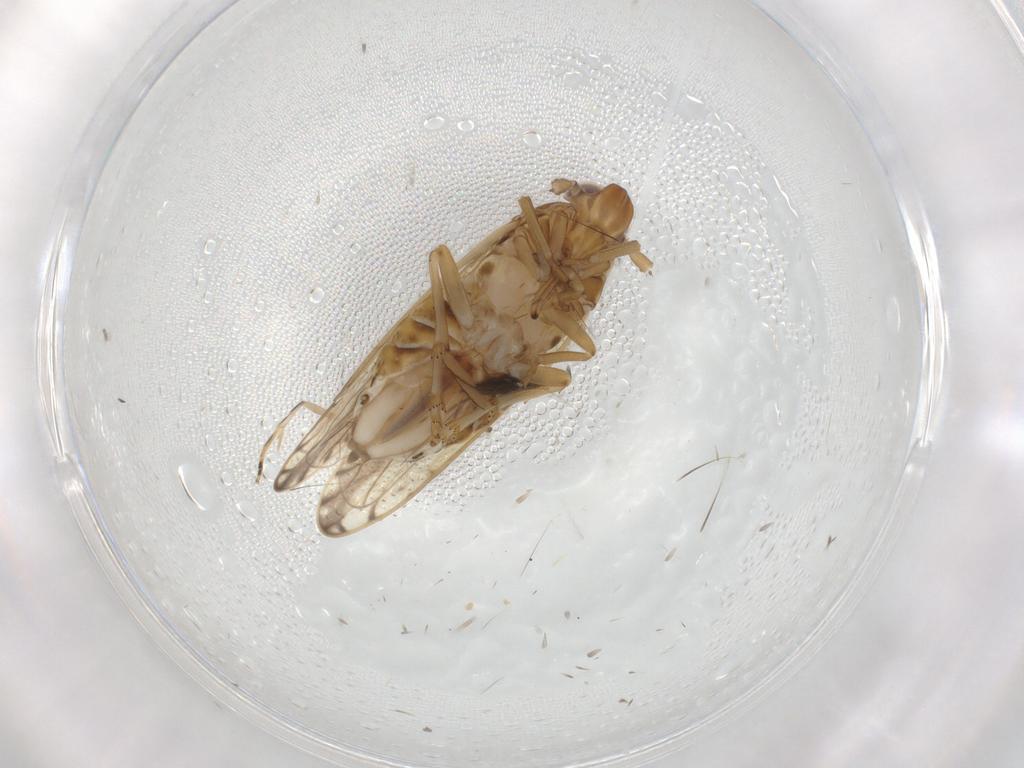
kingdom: Animalia
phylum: Arthropoda
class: Insecta
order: Hemiptera
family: Delphacidae
